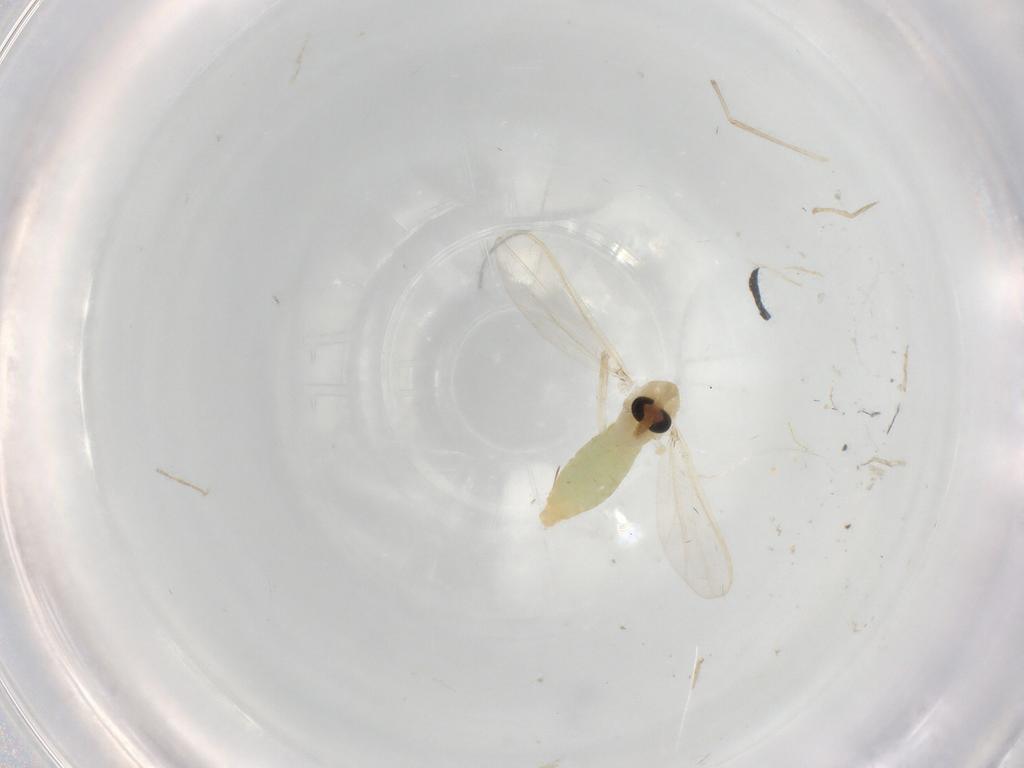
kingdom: Animalia
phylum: Arthropoda
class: Insecta
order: Diptera
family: Chironomidae
